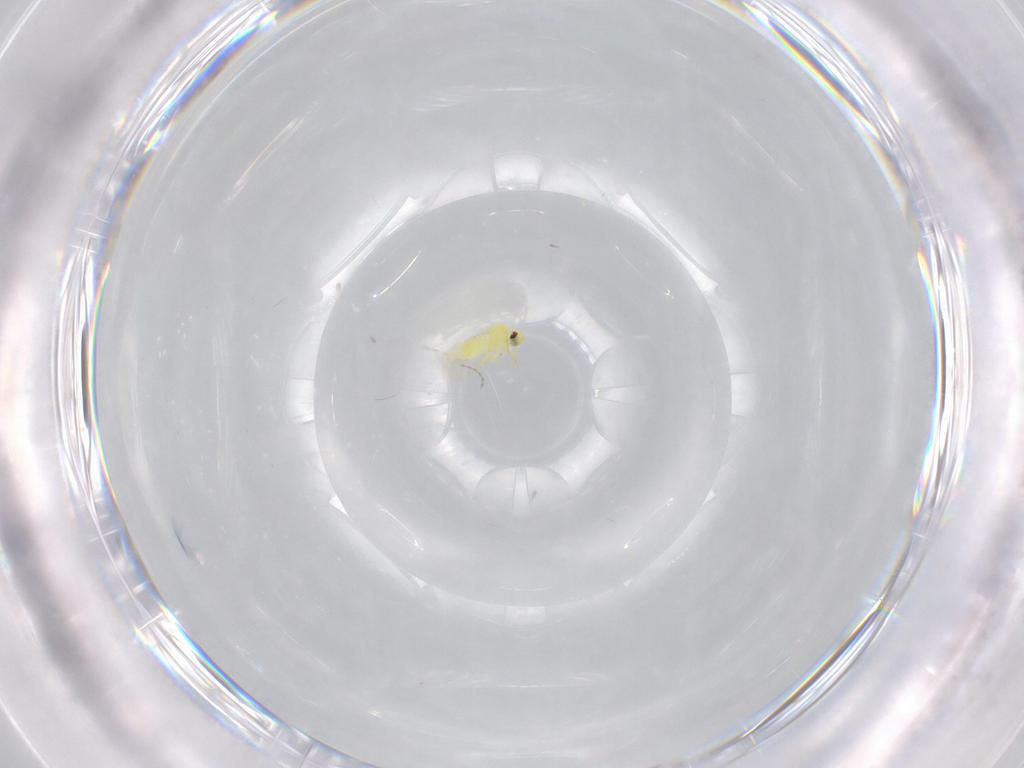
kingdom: Animalia
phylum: Arthropoda
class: Insecta
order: Hemiptera
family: Aleyrodidae
